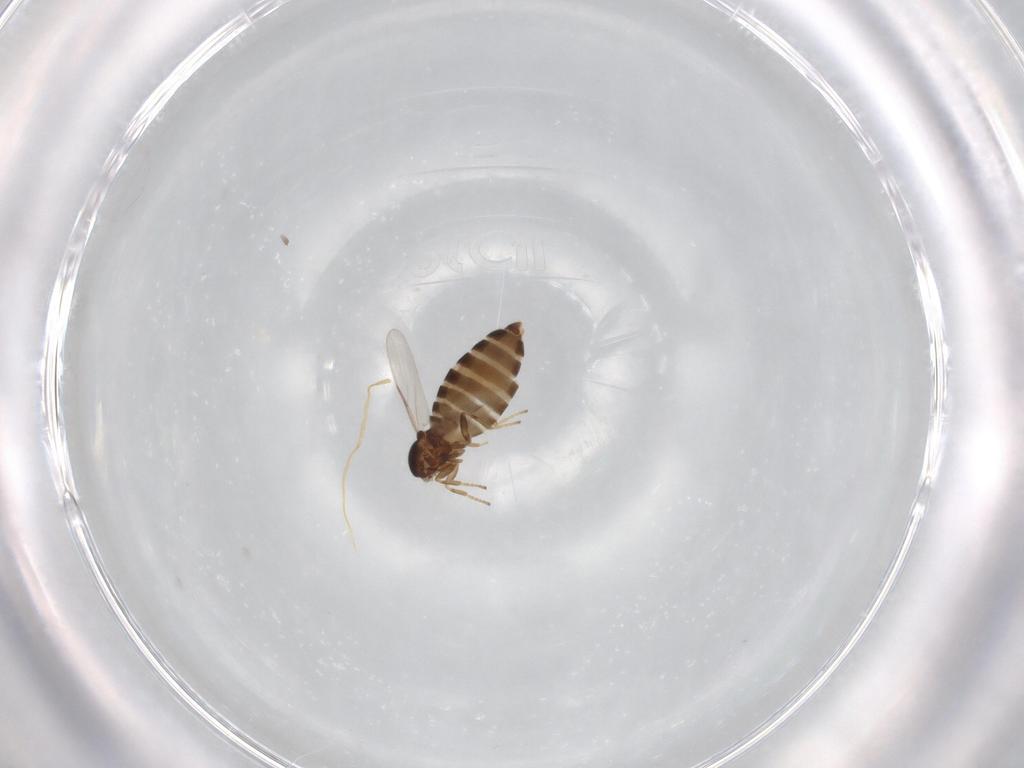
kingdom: Animalia
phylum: Arthropoda
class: Insecta
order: Diptera
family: Scatopsidae
